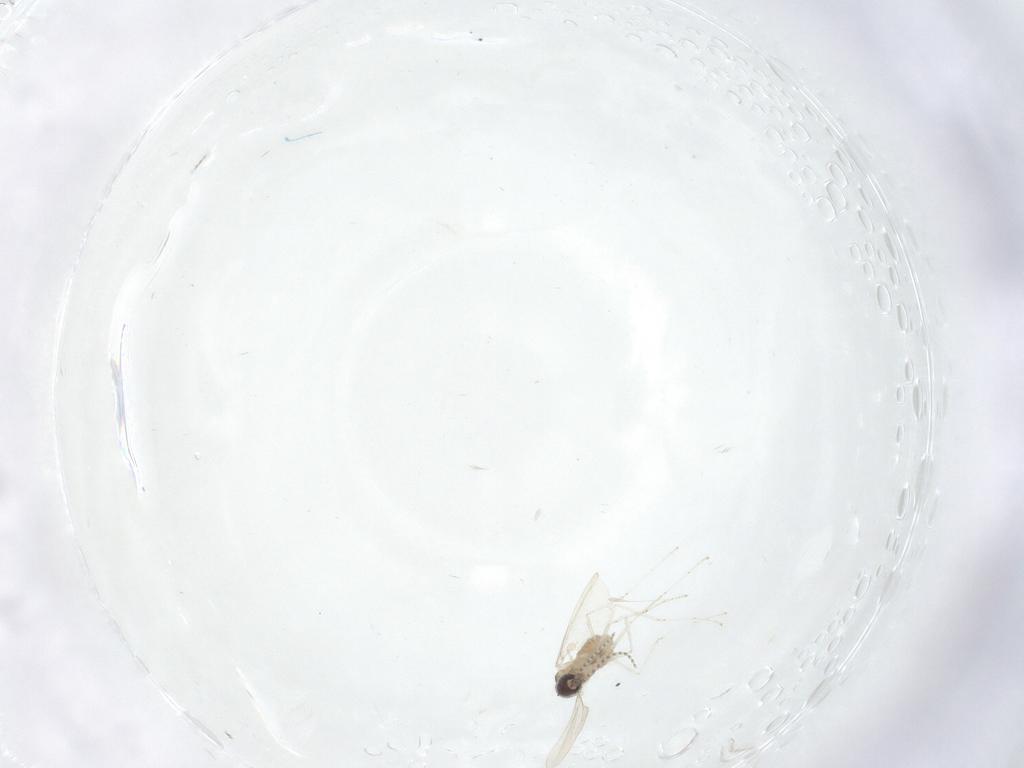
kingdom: Animalia
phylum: Arthropoda
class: Insecta
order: Diptera
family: Cecidomyiidae
